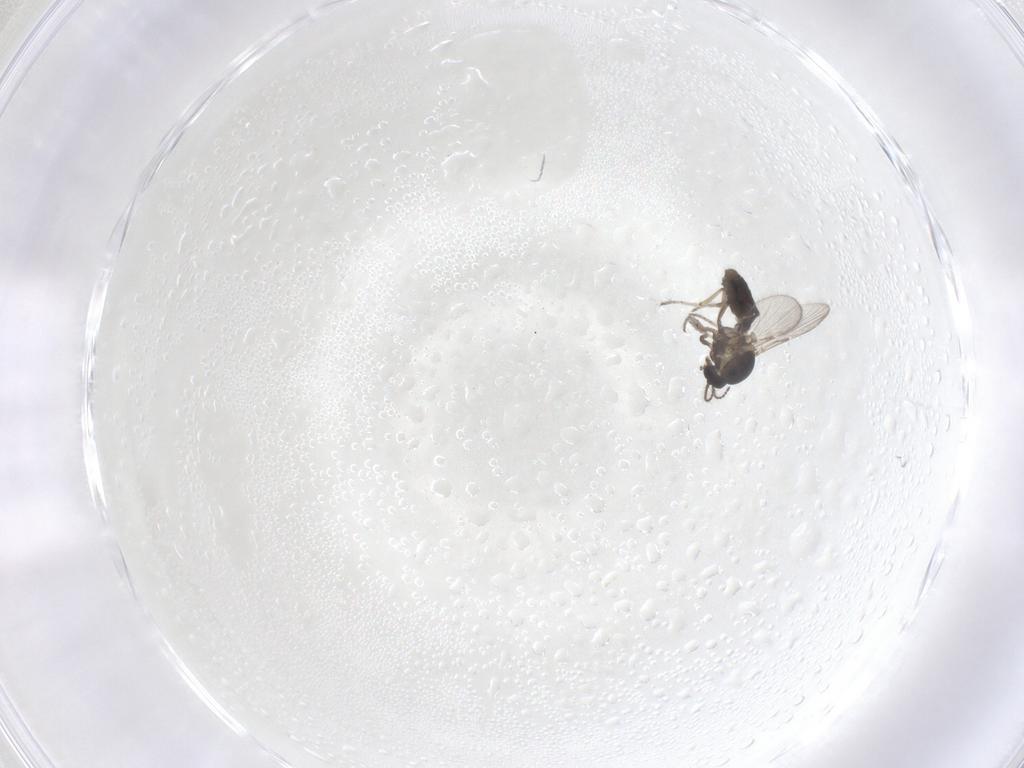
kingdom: Animalia
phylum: Arthropoda
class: Insecta
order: Diptera
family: Ceratopogonidae
